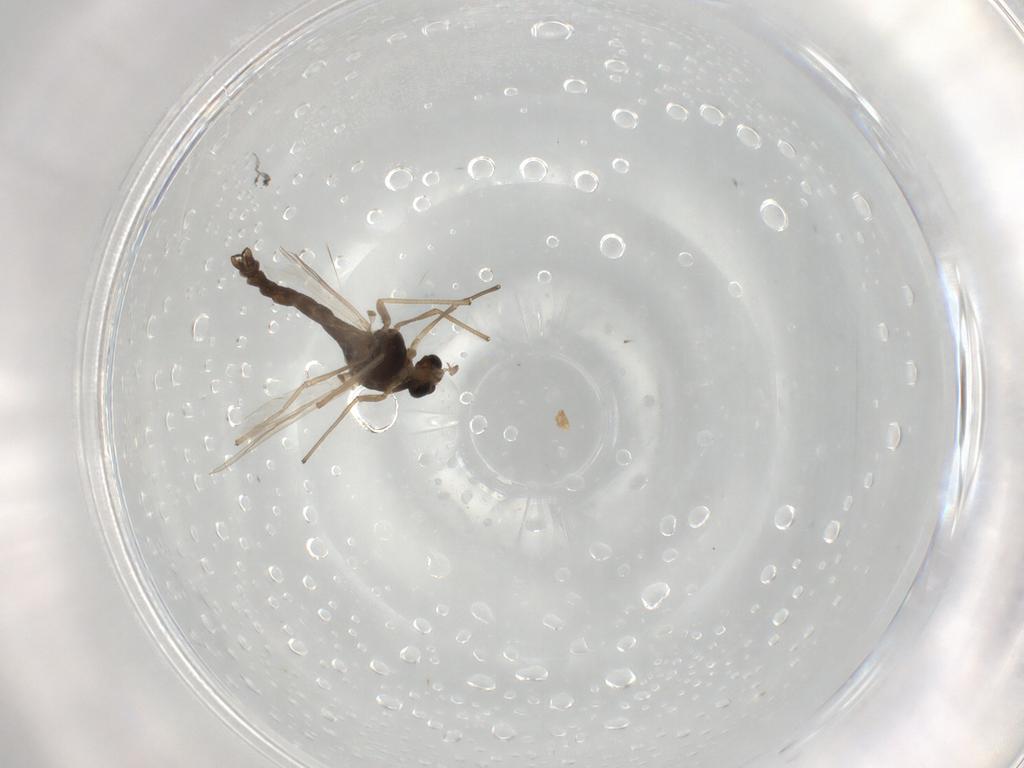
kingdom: Animalia
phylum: Arthropoda
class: Insecta
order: Diptera
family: Chironomidae
